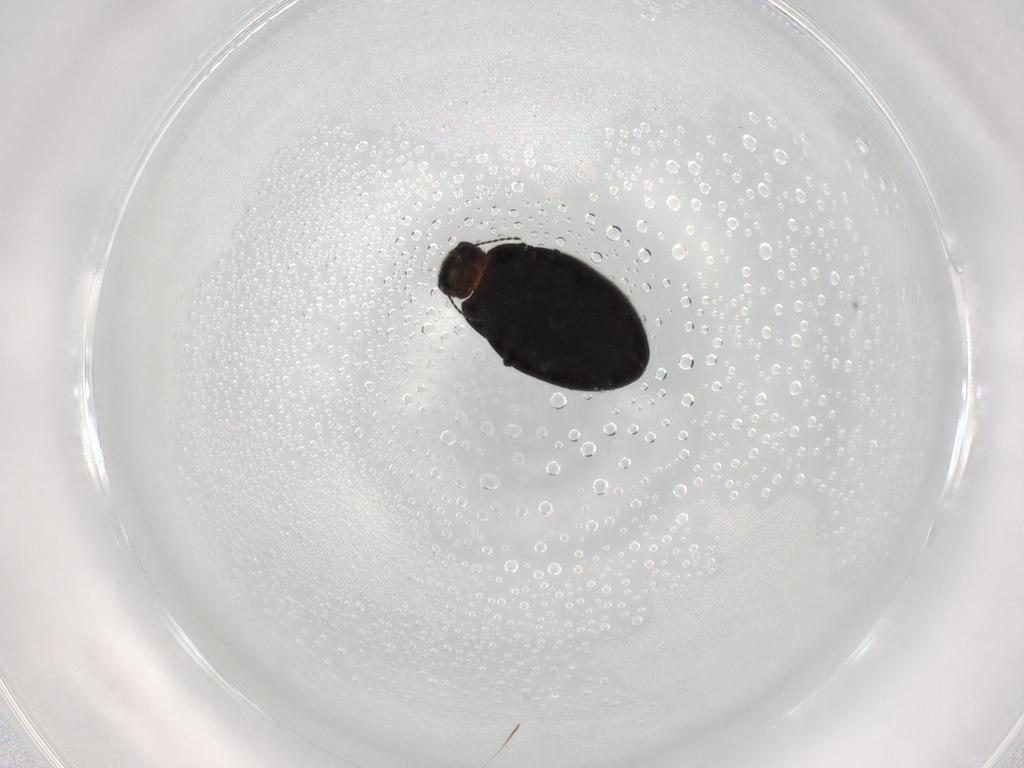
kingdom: Animalia
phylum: Arthropoda
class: Insecta
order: Coleoptera
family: Limnichidae
